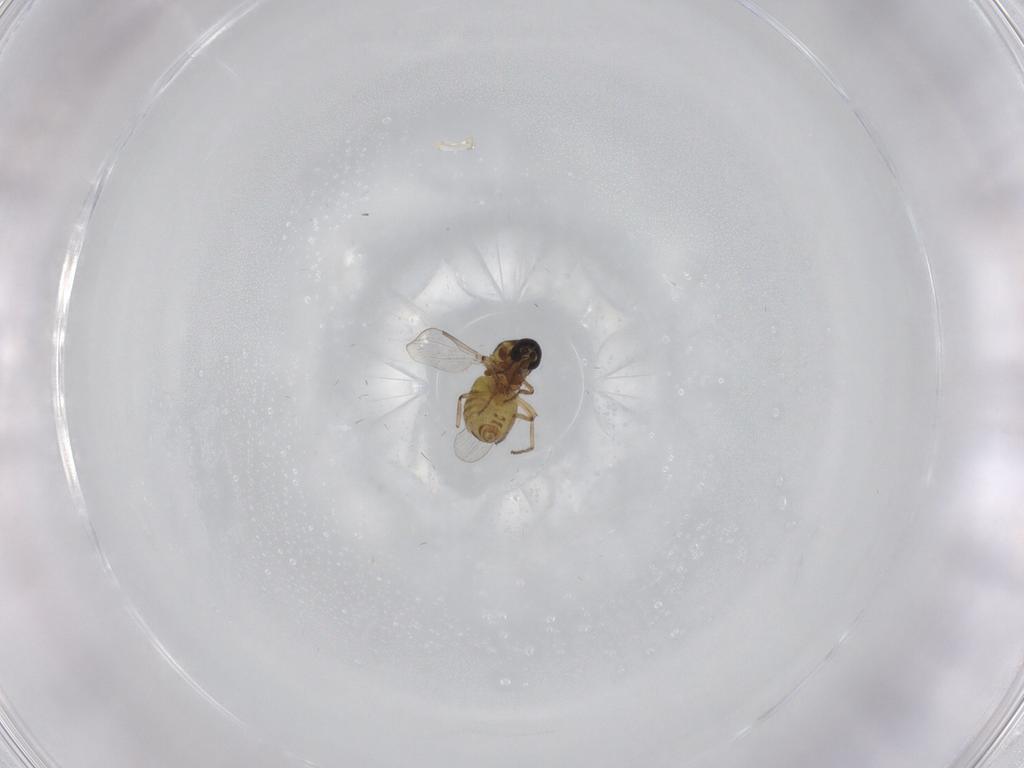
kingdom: Animalia
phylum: Arthropoda
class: Insecta
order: Diptera
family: Ceratopogonidae
